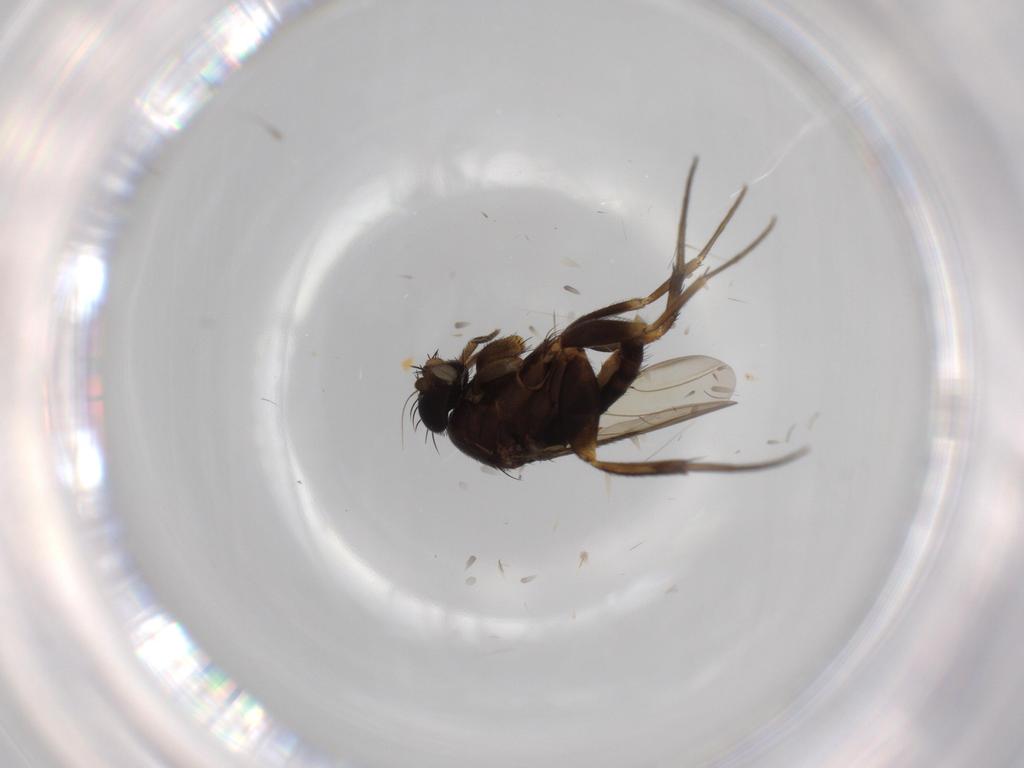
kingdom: Animalia
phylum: Arthropoda
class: Insecta
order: Diptera
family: Phoridae
